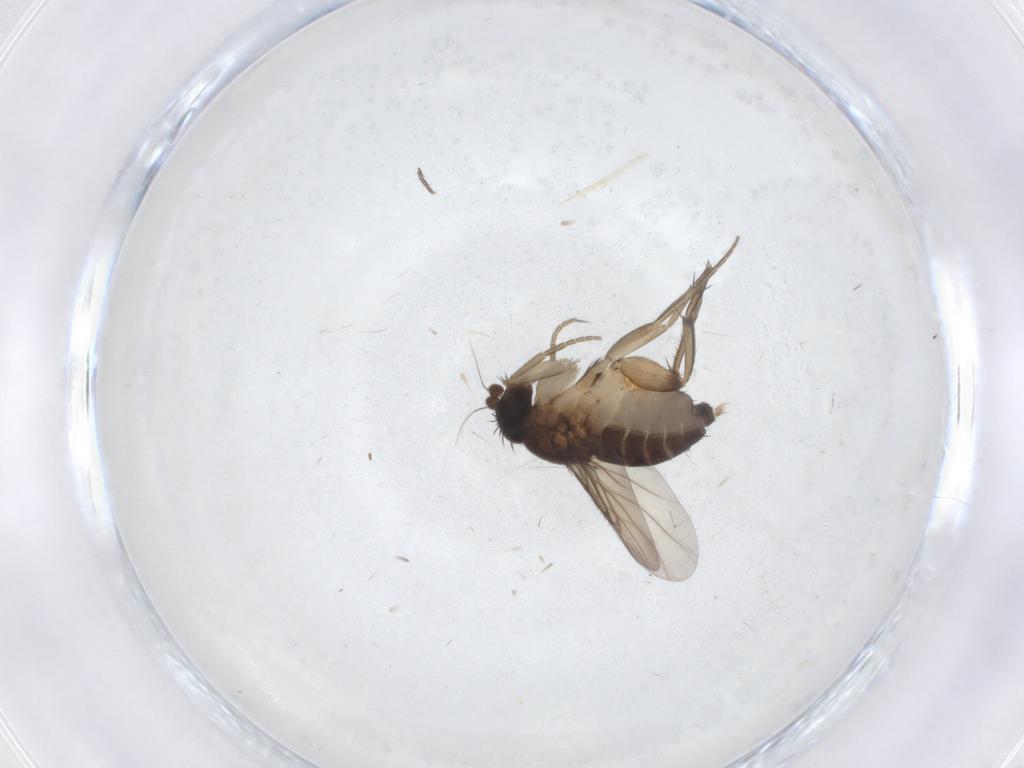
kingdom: Animalia
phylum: Arthropoda
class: Insecta
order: Diptera
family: Phoridae
